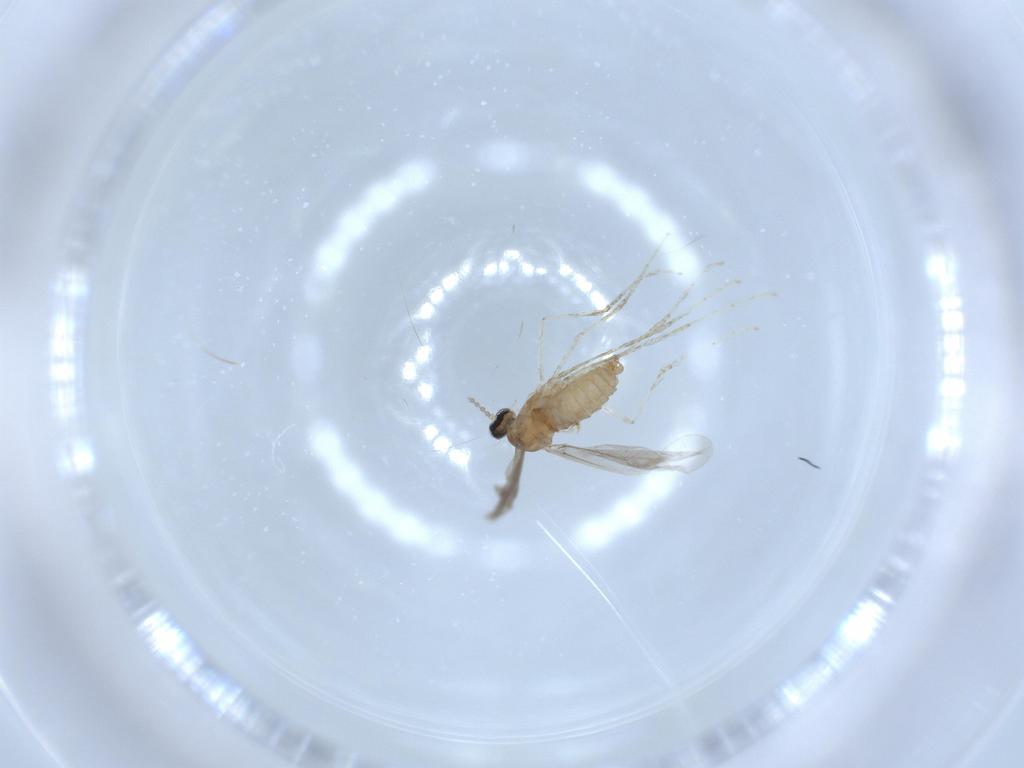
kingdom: Animalia
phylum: Arthropoda
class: Insecta
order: Diptera
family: Cecidomyiidae
